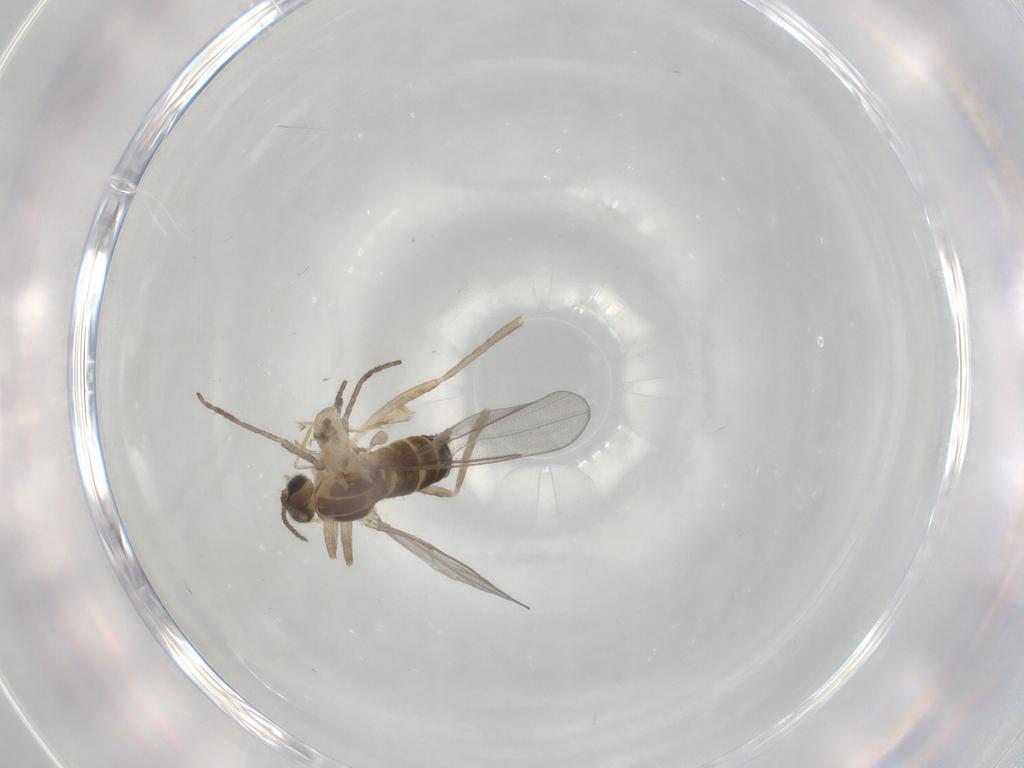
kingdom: Animalia
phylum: Arthropoda
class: Insecta
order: Diptera
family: Cecidomyiidae
